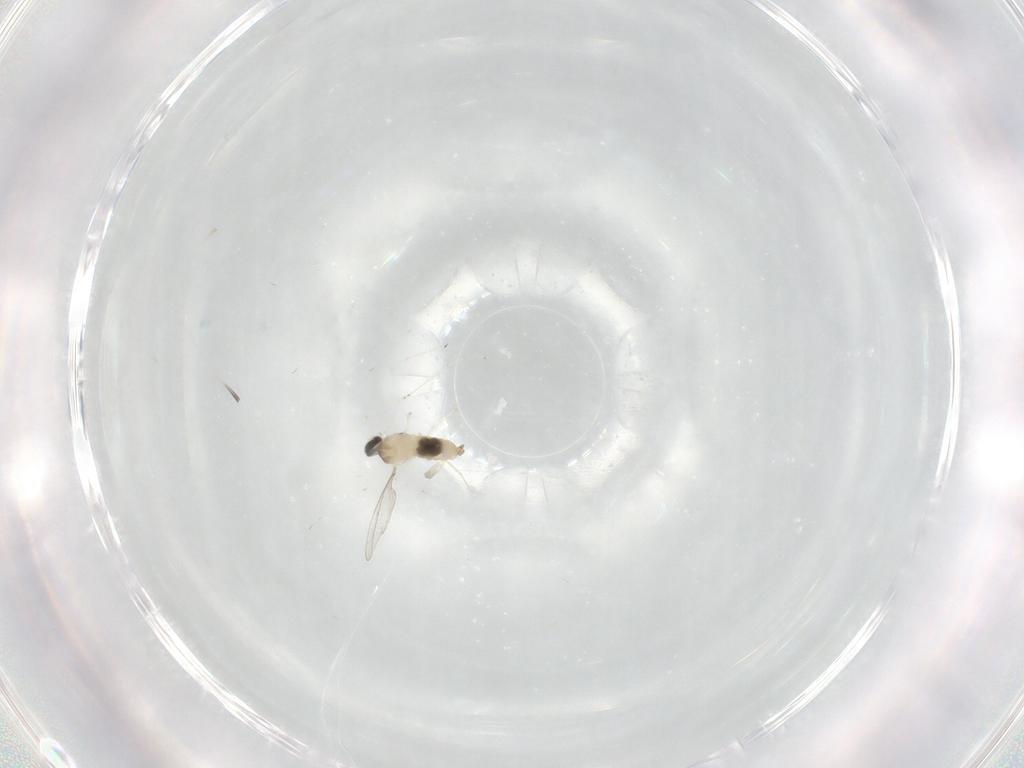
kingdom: Animalia
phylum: Arthropoda
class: Insecta
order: Diptera
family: Cecidomyiidae
